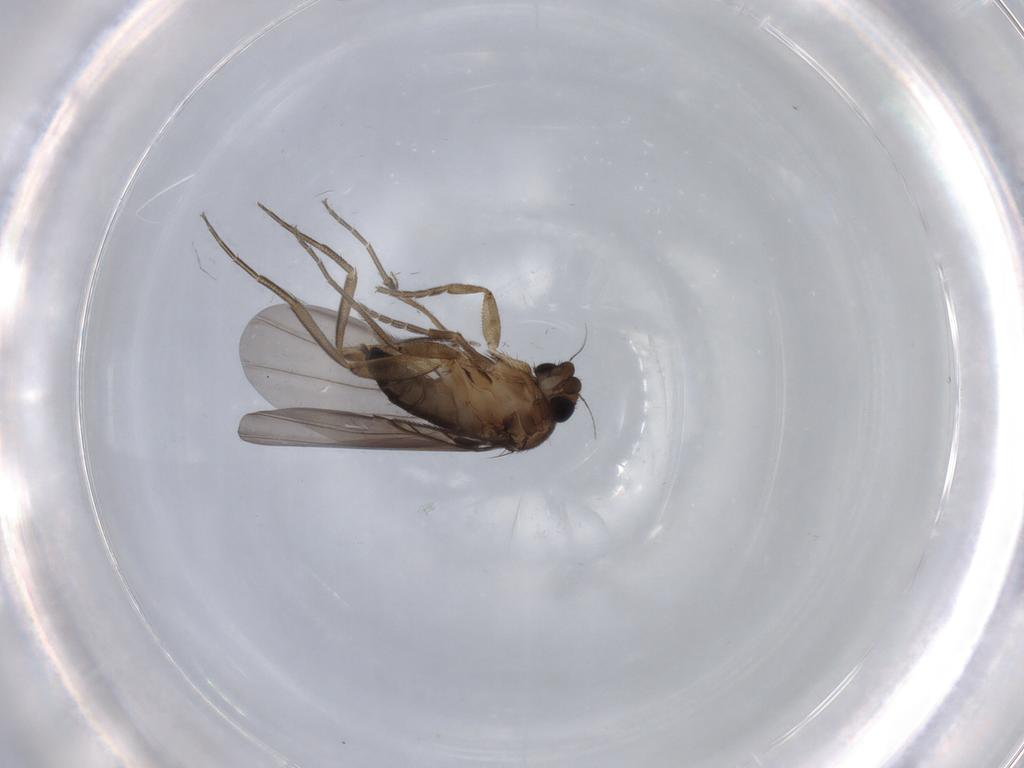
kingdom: Animalia
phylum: Arthropoda
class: Insecta
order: Diptera
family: Phoridae
